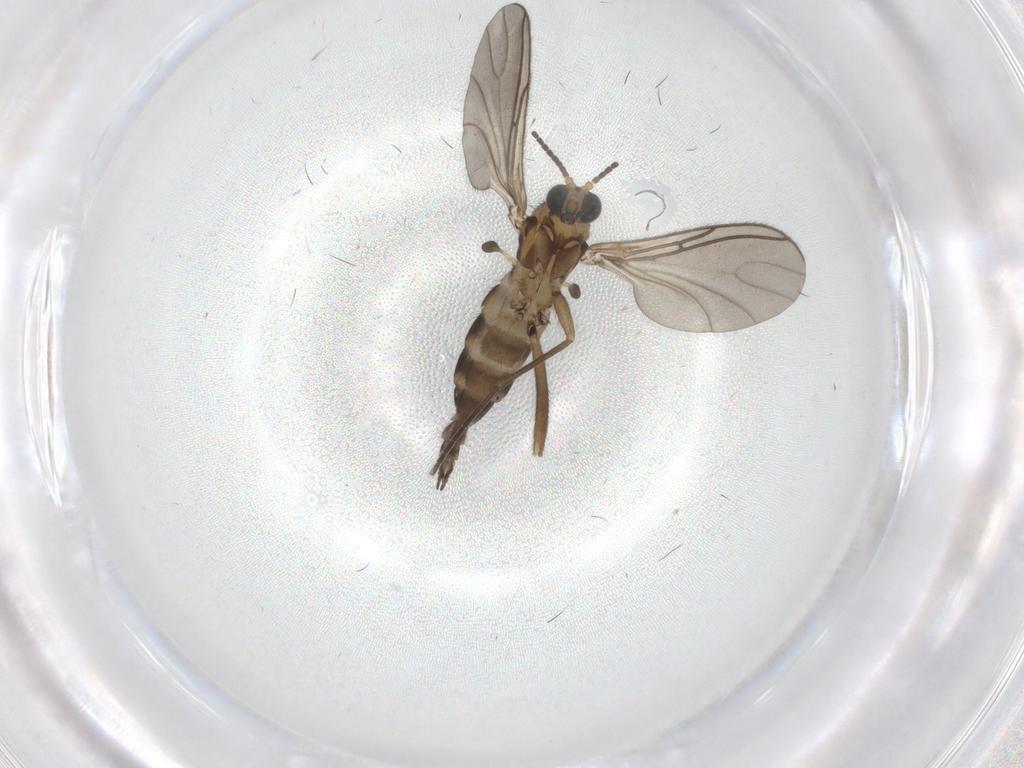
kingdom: Animalia
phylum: Arthropoda
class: Insecta
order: Diptera
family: Sciaridae
